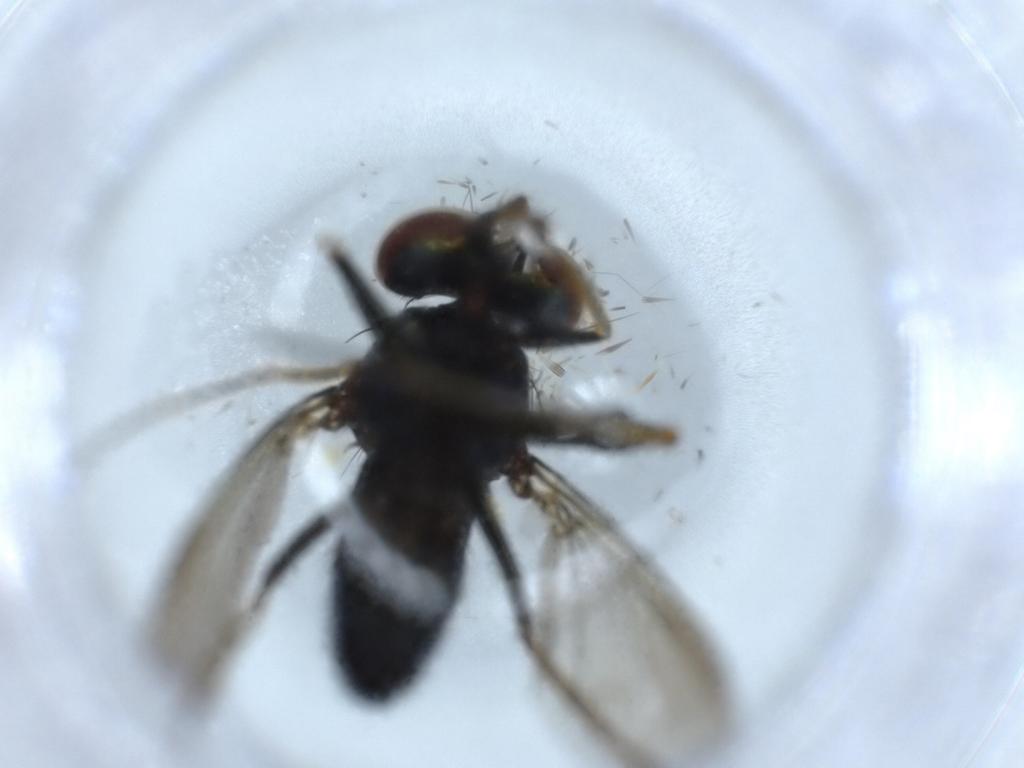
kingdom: Animalia
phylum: Arthropoda
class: Insecta
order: Diptera
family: Dolichopodidae
